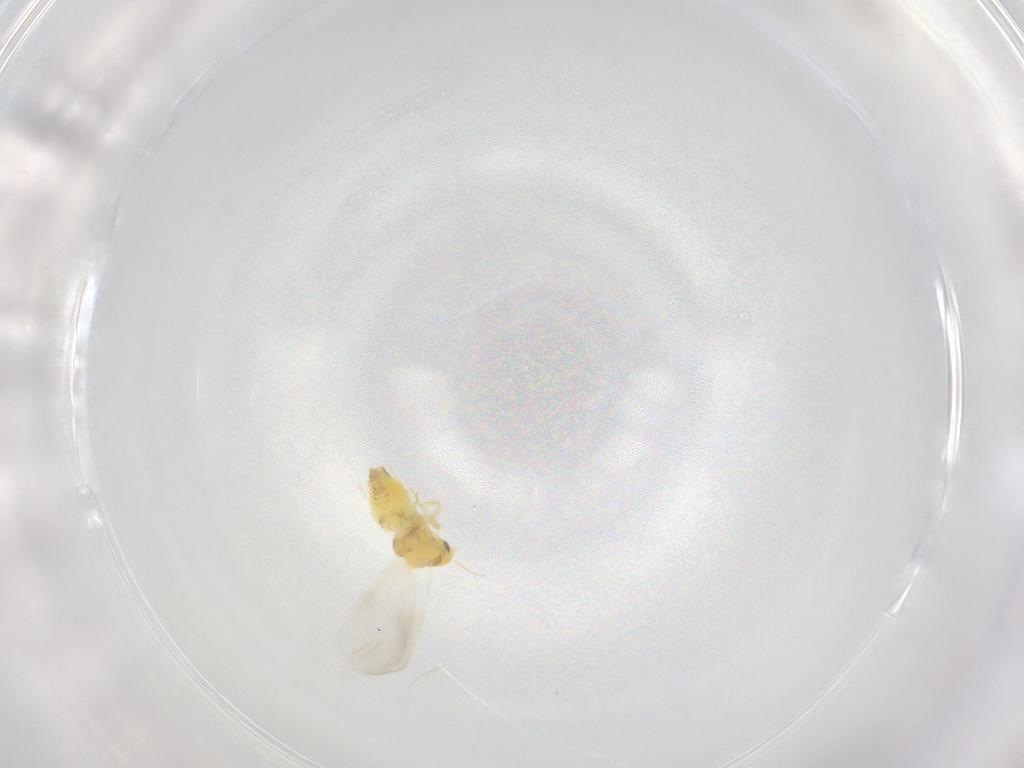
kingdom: Animalia
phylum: Arthropoda
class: Insecta
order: Hemiptera
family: Aleyrodidae
